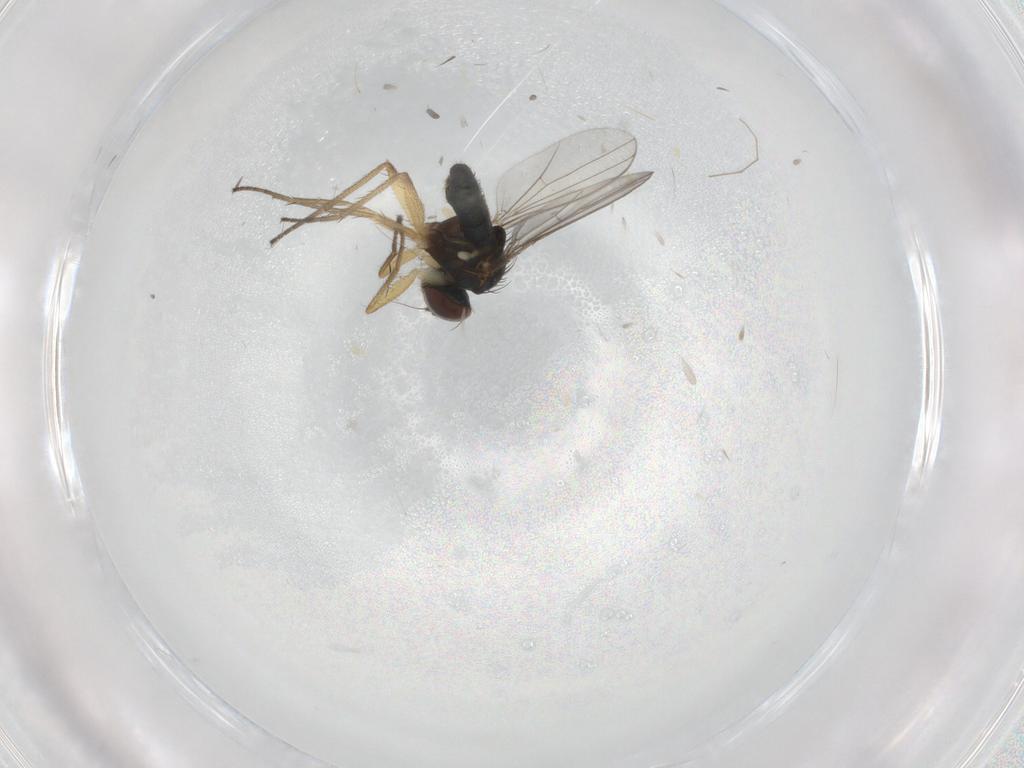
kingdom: Animalia
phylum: Arthropoda
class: Insecta
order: Diptera
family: Dolichopodidae
